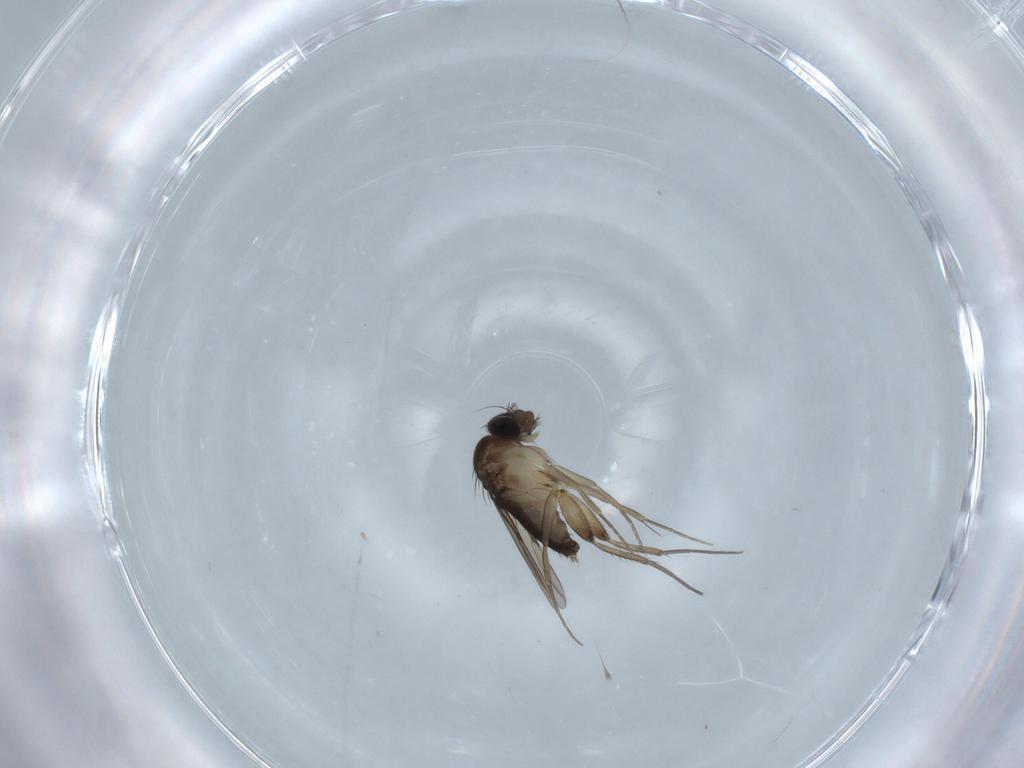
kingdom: Animalia
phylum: Arthropoda
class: Insecta
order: Diptera
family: Phoridae
